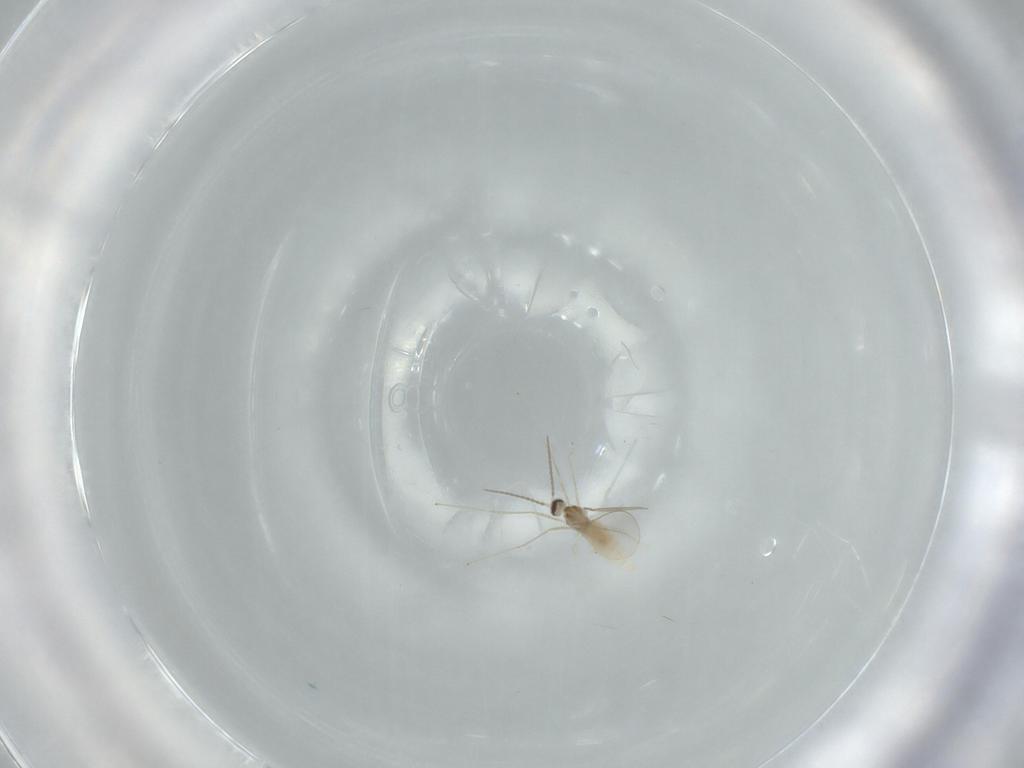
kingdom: Animalia
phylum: Arthropoda
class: Insecta
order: Diptera
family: Cecidomyiidae
